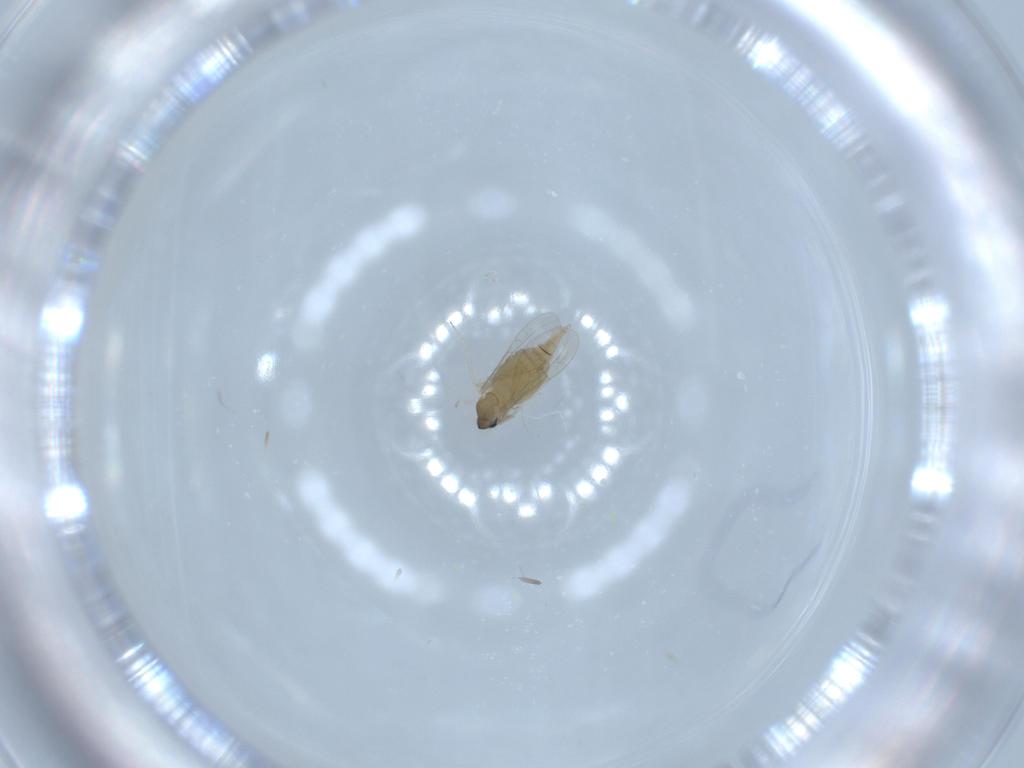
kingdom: Animalia
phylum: Arthropoda
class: Insecta
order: Diptera
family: Cecidomyiidae
